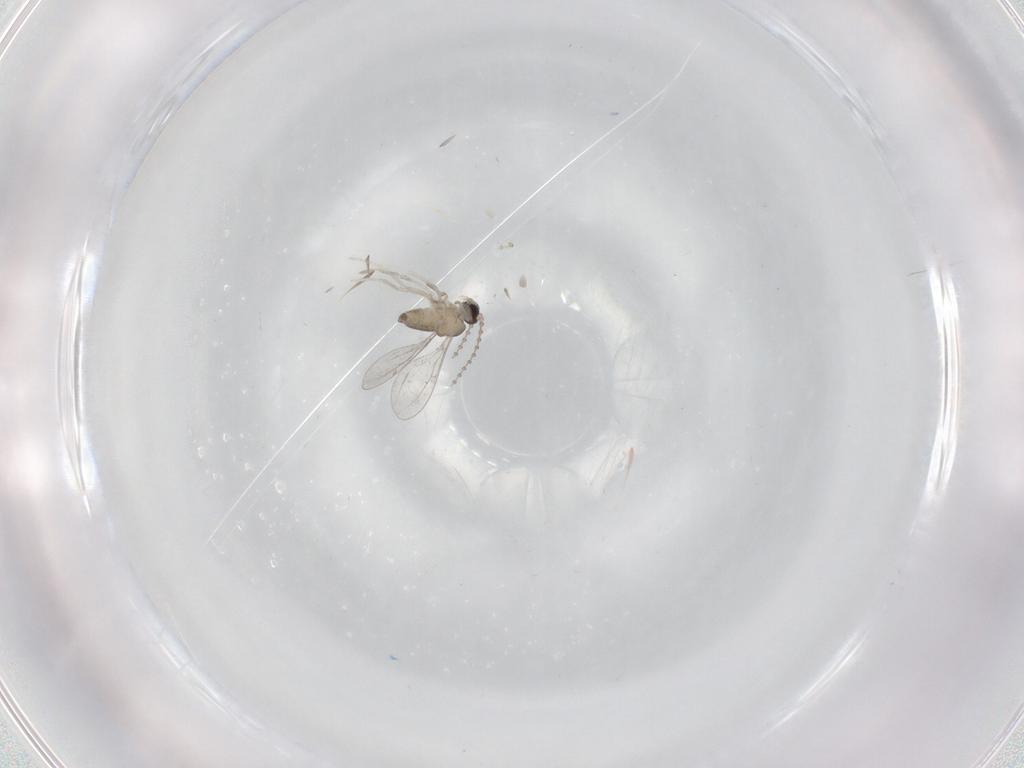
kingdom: Animalia
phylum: Arthropoda
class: Insecta
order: Diptera
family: Cecidomyiidae
